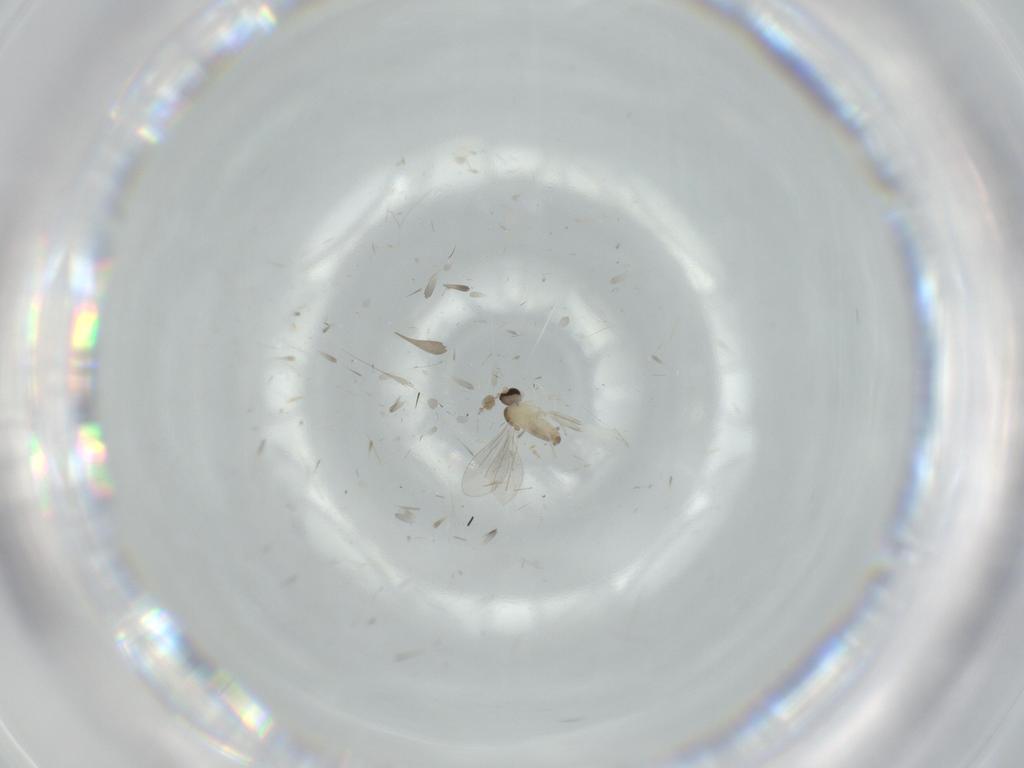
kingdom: Animalia
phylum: Arthropoda
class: Insecta
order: Diptera
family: Cecidomyiidae
